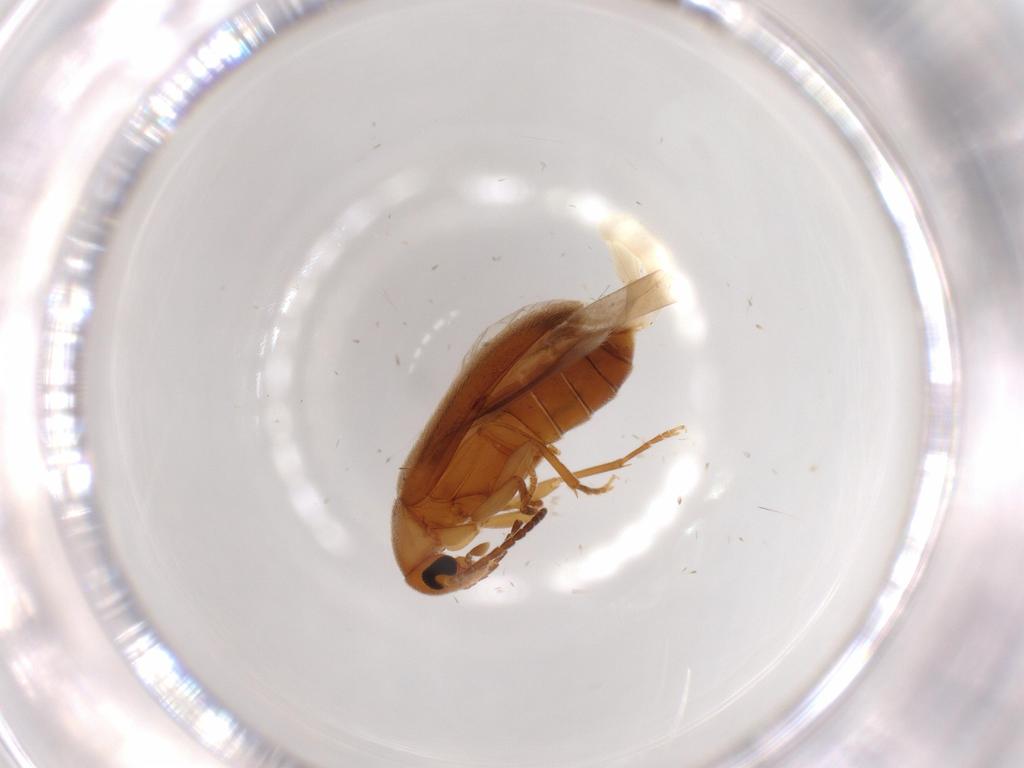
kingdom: Animalia
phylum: Arthropoda
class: Insecta
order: Coleoptera
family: Scraptiidae
